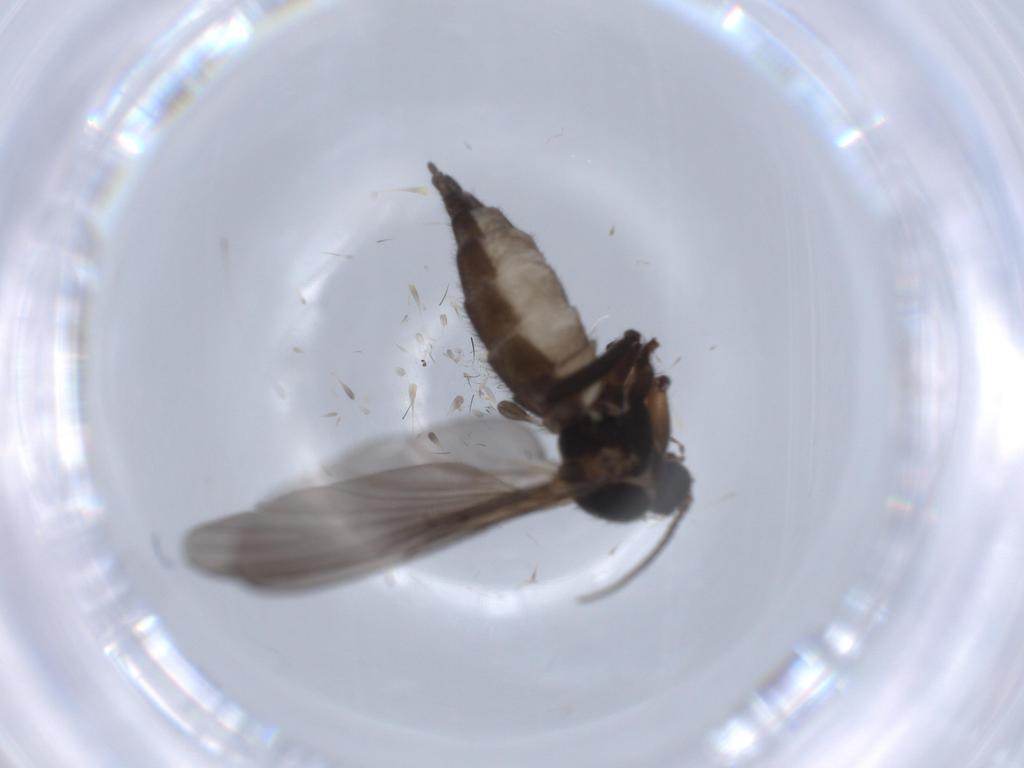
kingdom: Animalia
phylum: Arthropoda
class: Insecta
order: Diptera
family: Sciaridae
